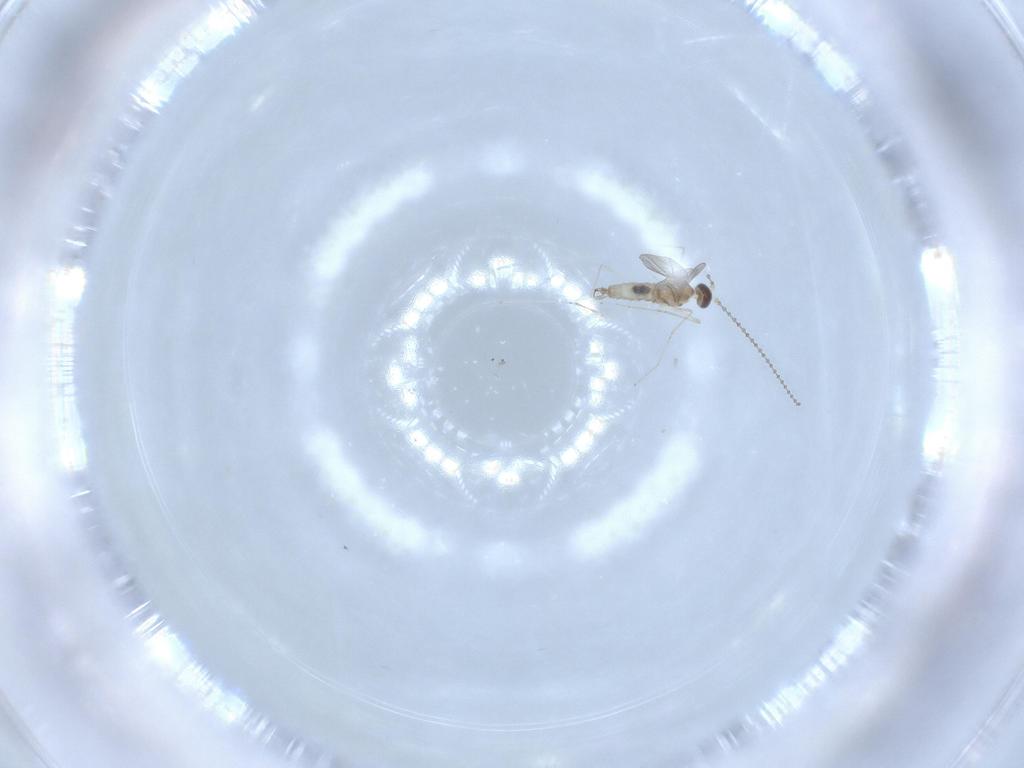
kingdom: Animalia
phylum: Arthropoda
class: Insecta
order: Diptera
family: Cecidomyiidae
